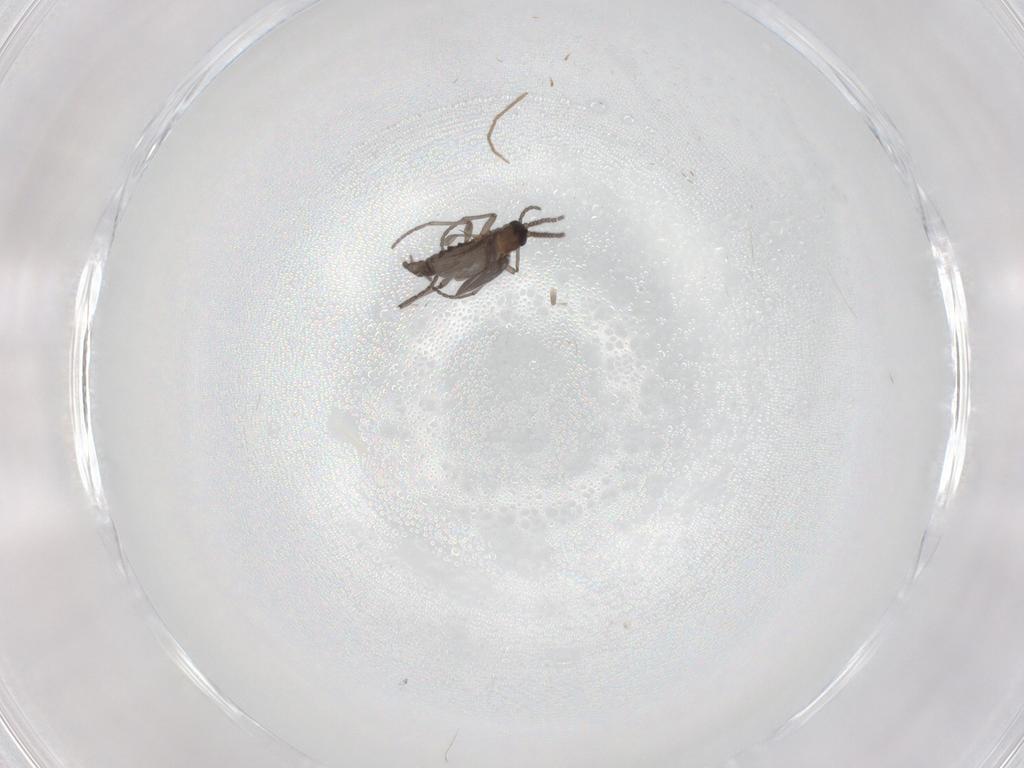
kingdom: Animalia
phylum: Arthropoda
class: Insecta
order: Diptera
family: Sciaridae
